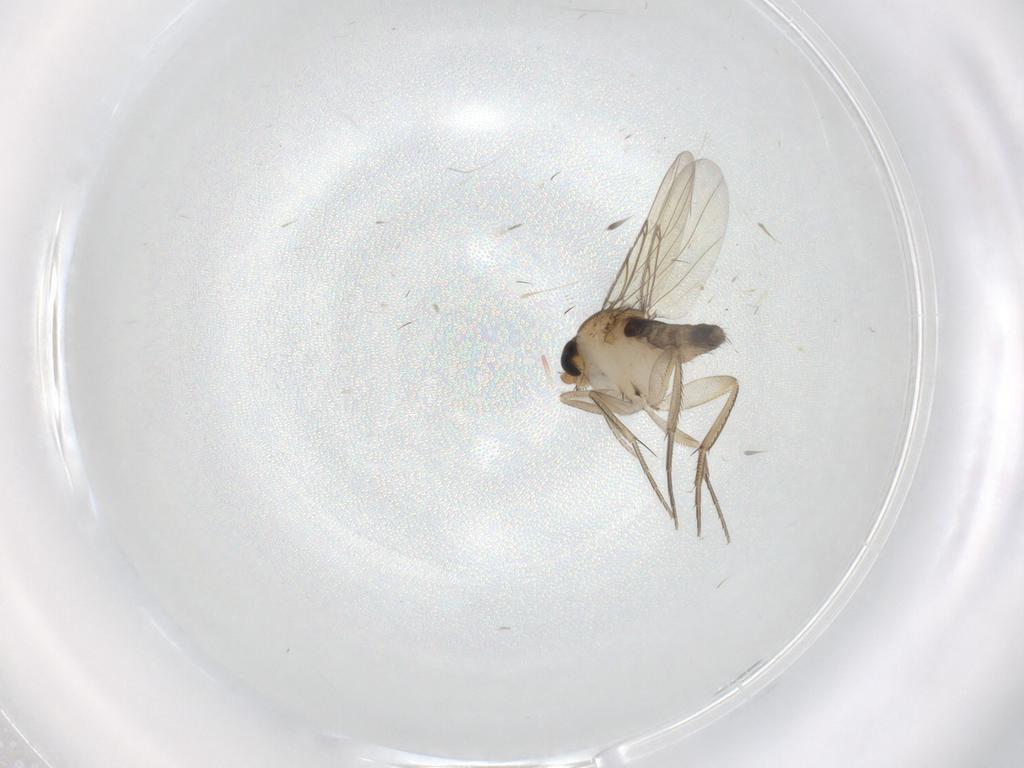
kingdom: Animalia
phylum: Arthropoda
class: Insecta
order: Diptera
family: Phoridae
